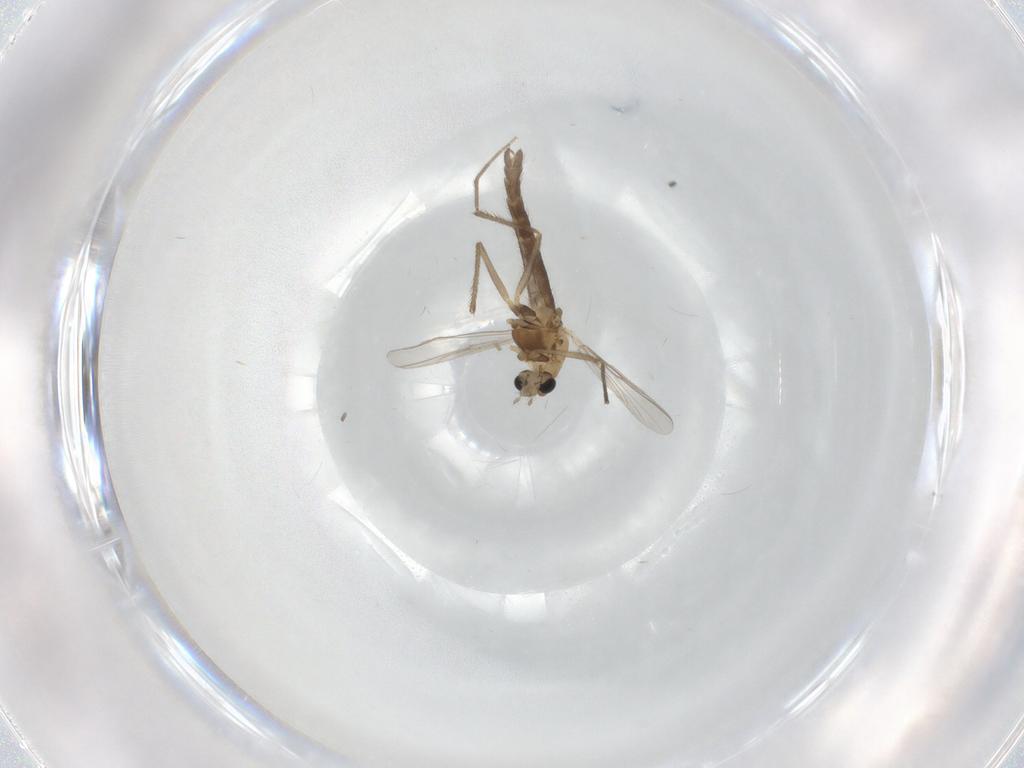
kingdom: Animalia
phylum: Arthropoda
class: Insecta
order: Diptera
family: Chironomidae
